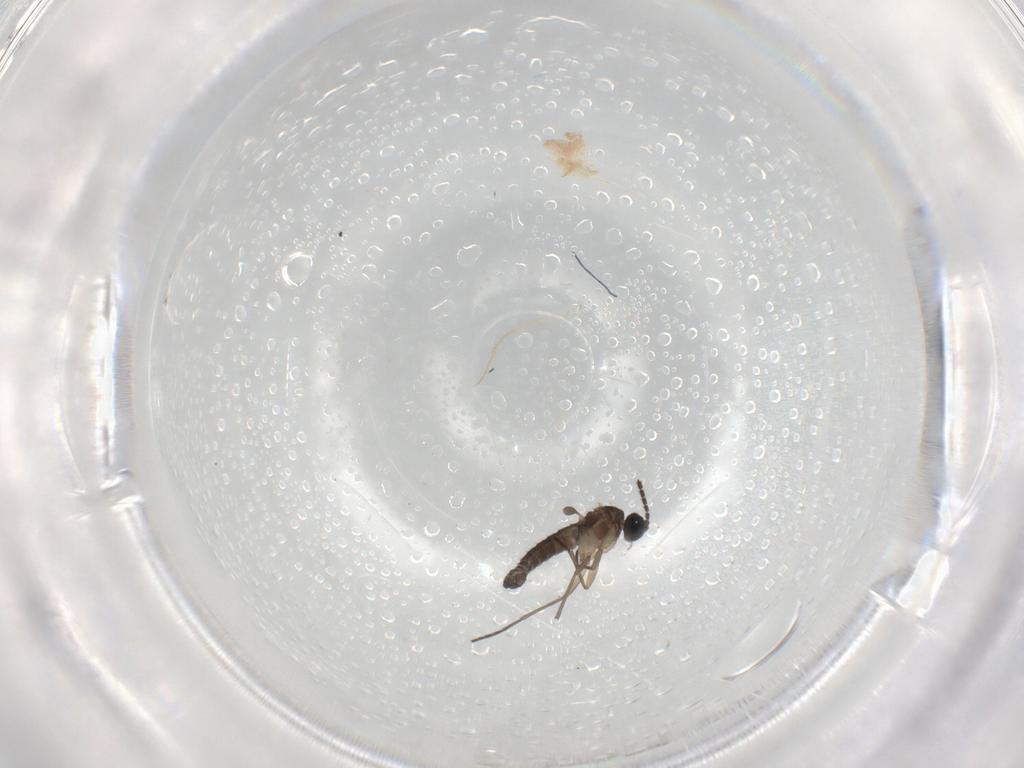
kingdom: Animalia
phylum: Arthropoda
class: Insecta
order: Diptera
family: Sciaridae
